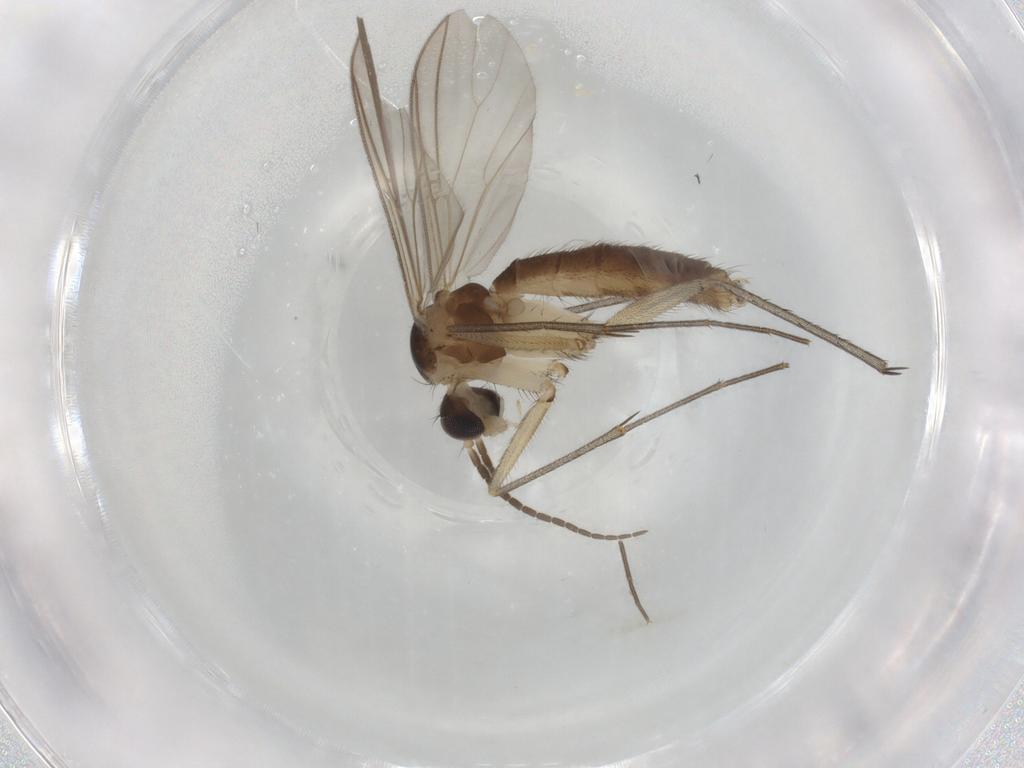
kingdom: Animalia
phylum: Arthropoda
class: Insecta
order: Diptera
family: Mycetophilidae
